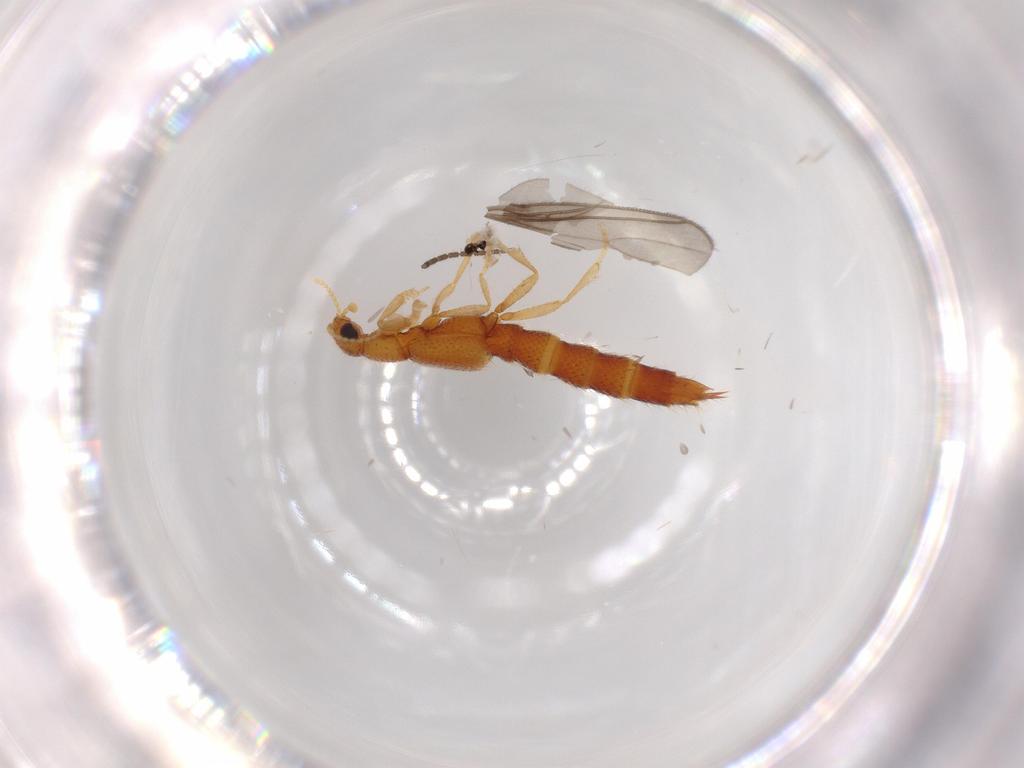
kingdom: Animalia
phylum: Arthropoda
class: Insecta
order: Coleoptera
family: Staphylinidae
